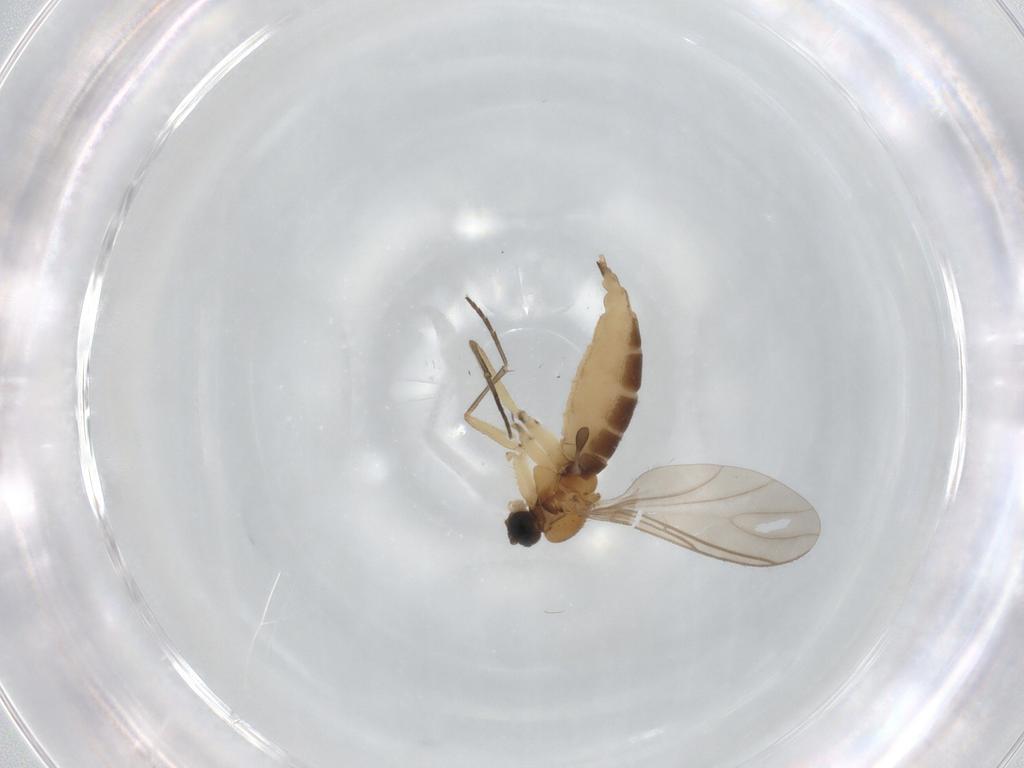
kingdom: Animalia
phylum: Arthropoda
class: Insecta
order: Diptera
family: Sciaridae
